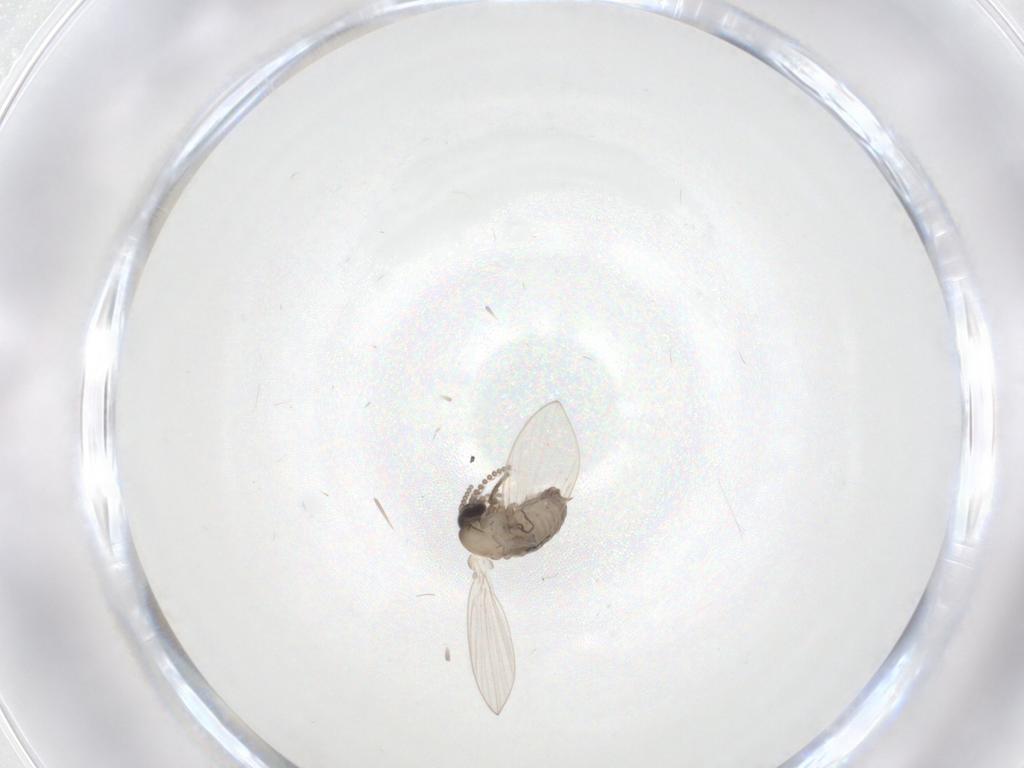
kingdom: Animalia
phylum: Arthropoda
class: Insecta
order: Diptera
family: Psychodidae
